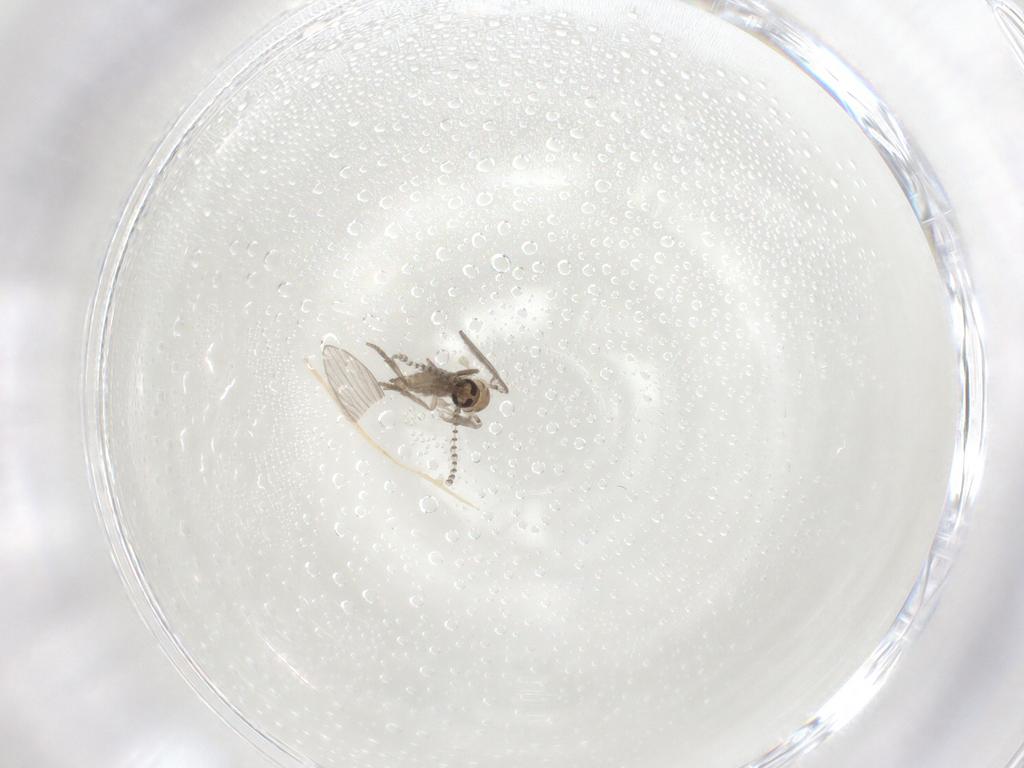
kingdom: Animalia
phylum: Arthropoda
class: Insecta
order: Diptera
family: Psychodidae
